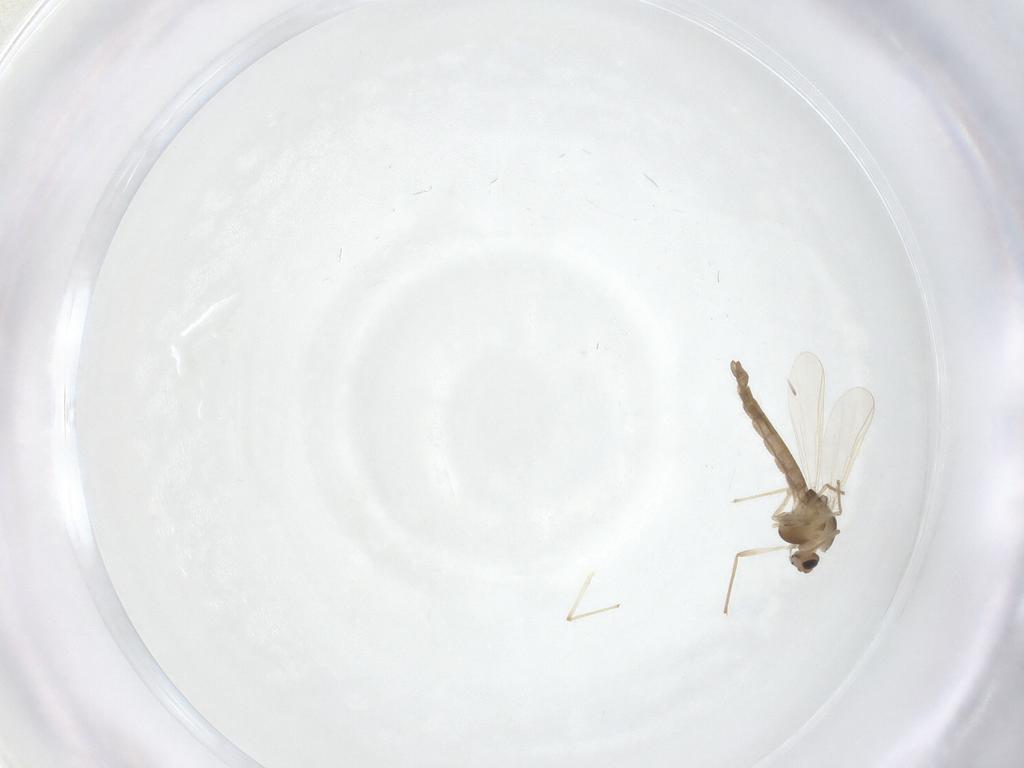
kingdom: Animalia
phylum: Arthropoda
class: Insecta
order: Diptera
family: Chironomidae
